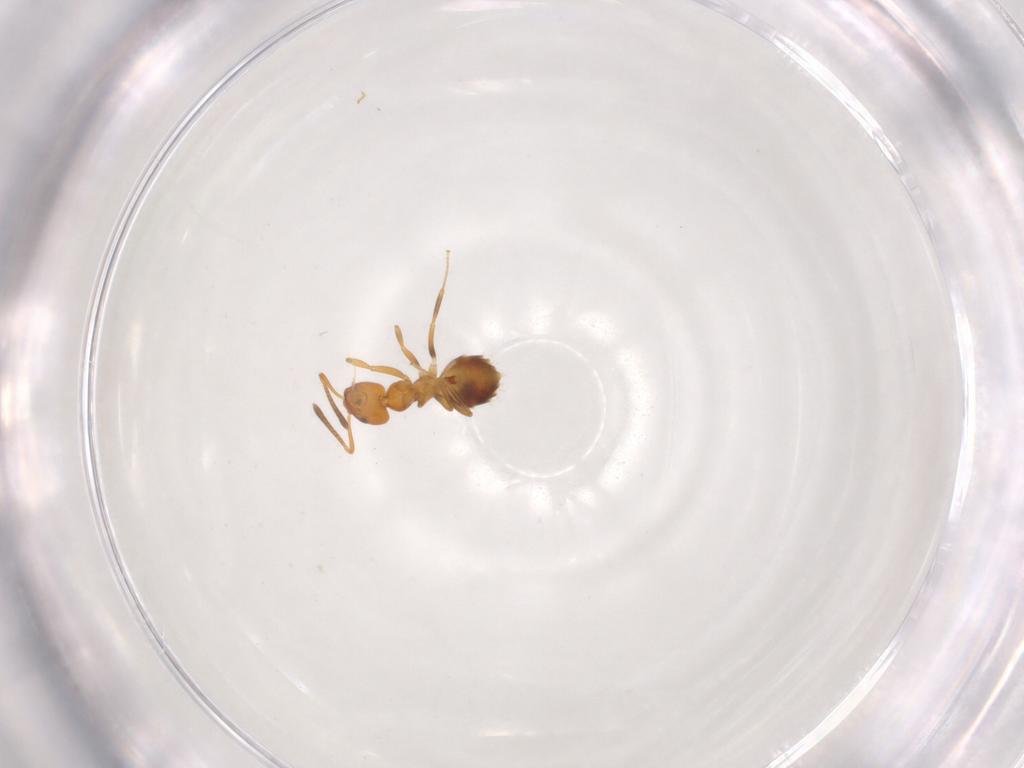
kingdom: Animalia
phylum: Arthropoda
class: Insecta
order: Hymenoptera
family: Formicidae
